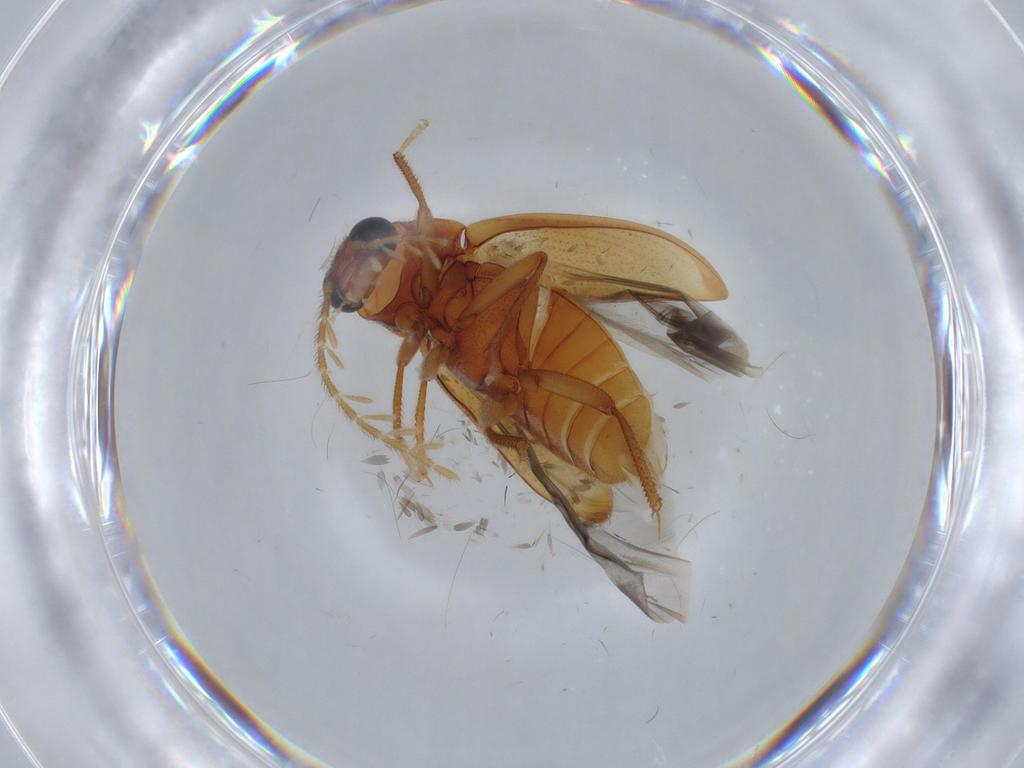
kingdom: Animalia
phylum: Arthropoda
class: Insecta
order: Coleoptera
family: Ptilodactylidae
